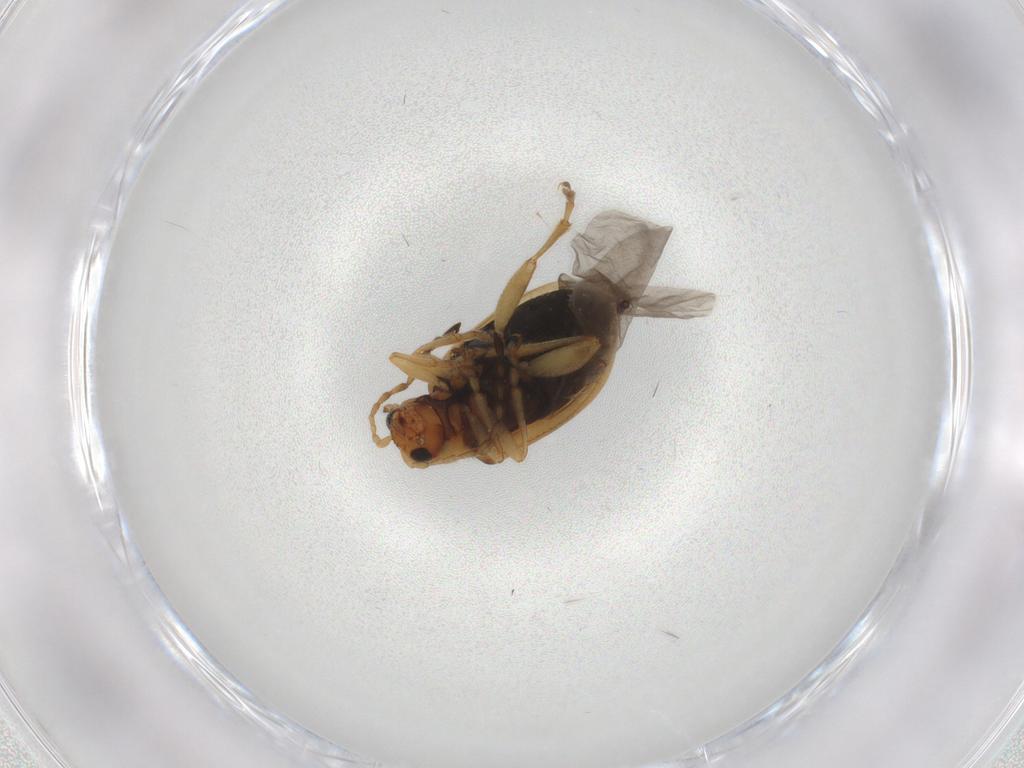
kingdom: Animalia
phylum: Arthropoda
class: Insecta
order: Coleoptera
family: Chrysomelidae
